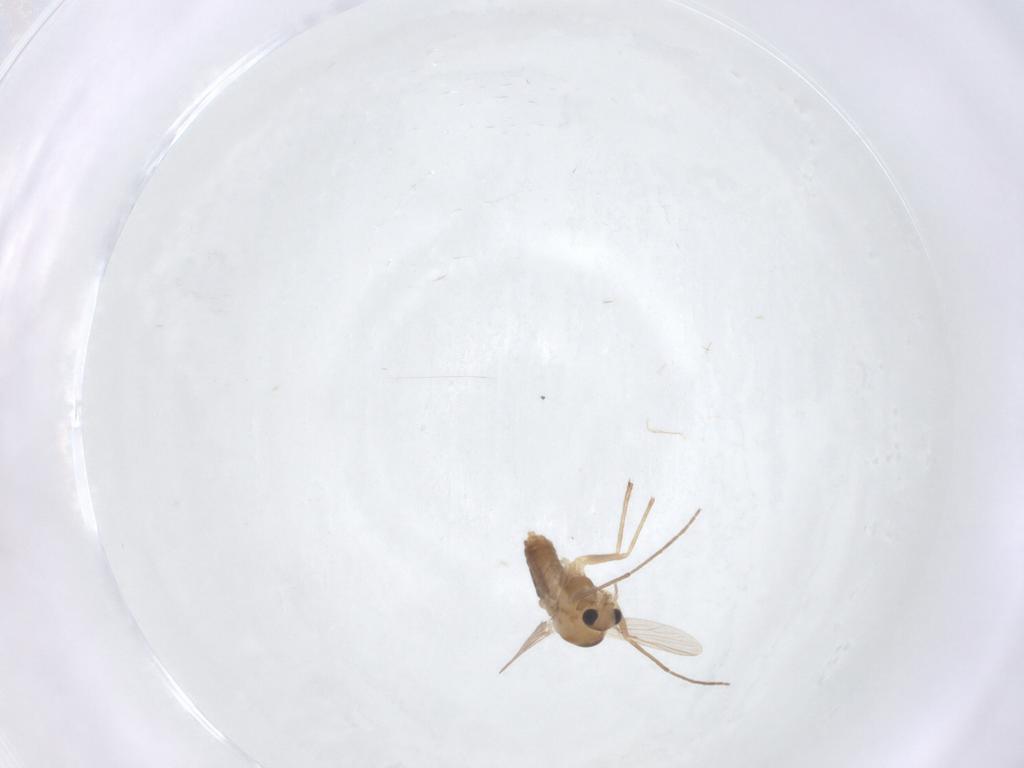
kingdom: Animalia
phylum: Arthropoda
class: Insecta
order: Diptera
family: Chironomidae
